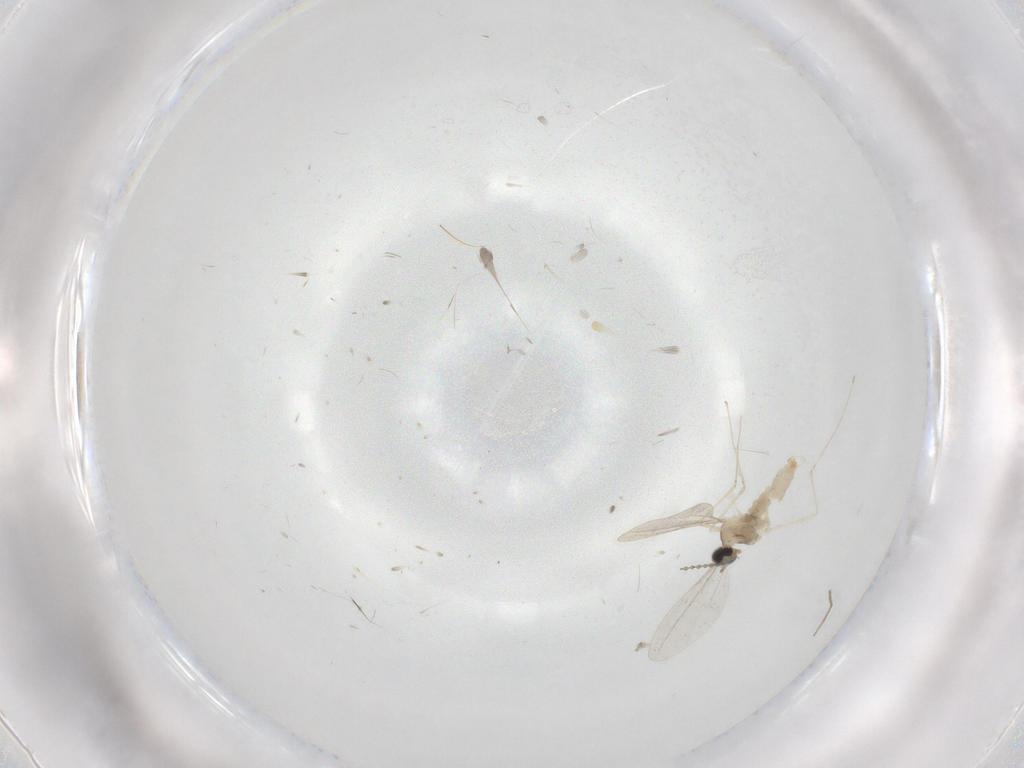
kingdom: Animalia
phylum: Arthropoda
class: Insecta
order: Diptera
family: Cecidomyiidae
